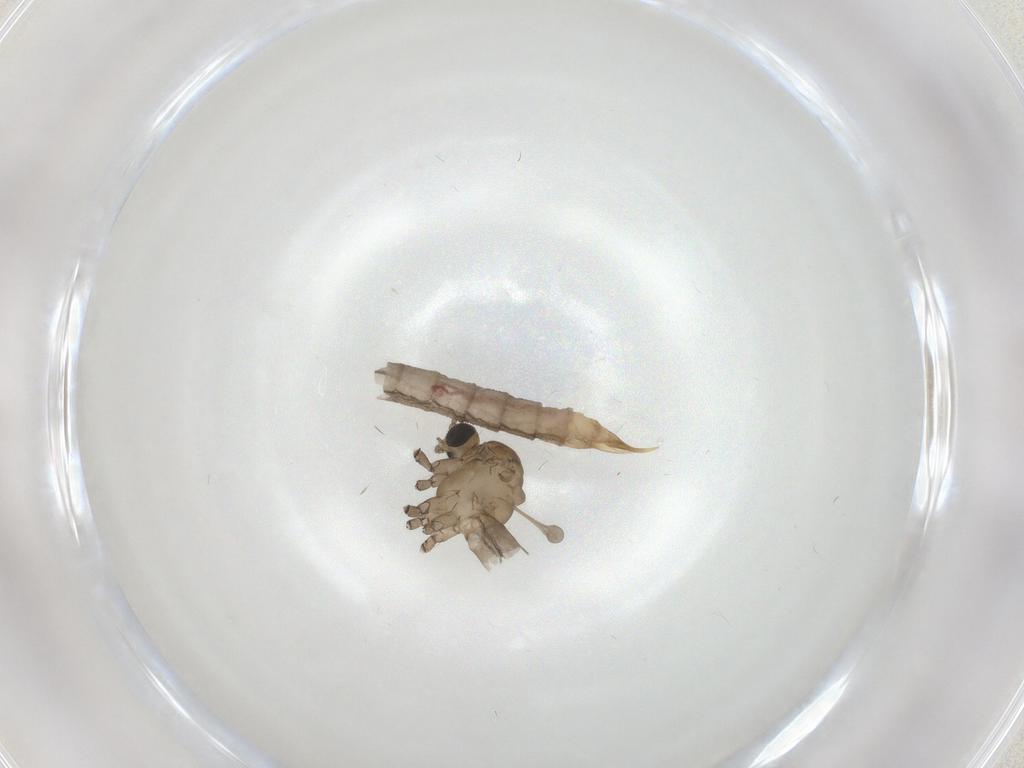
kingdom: Animalia
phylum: Arthropoda
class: Insecta
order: Diptera
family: Limoniidae
